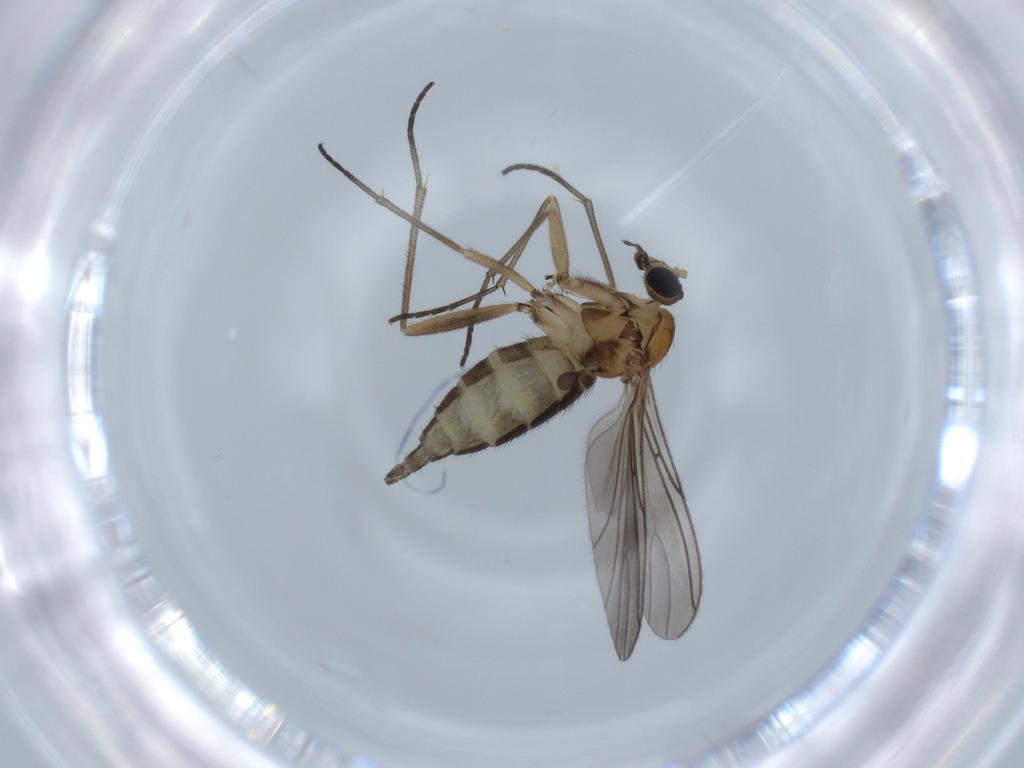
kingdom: Animalia
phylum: Arthropoda
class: Insecta
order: Diptera
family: Sciaridae
